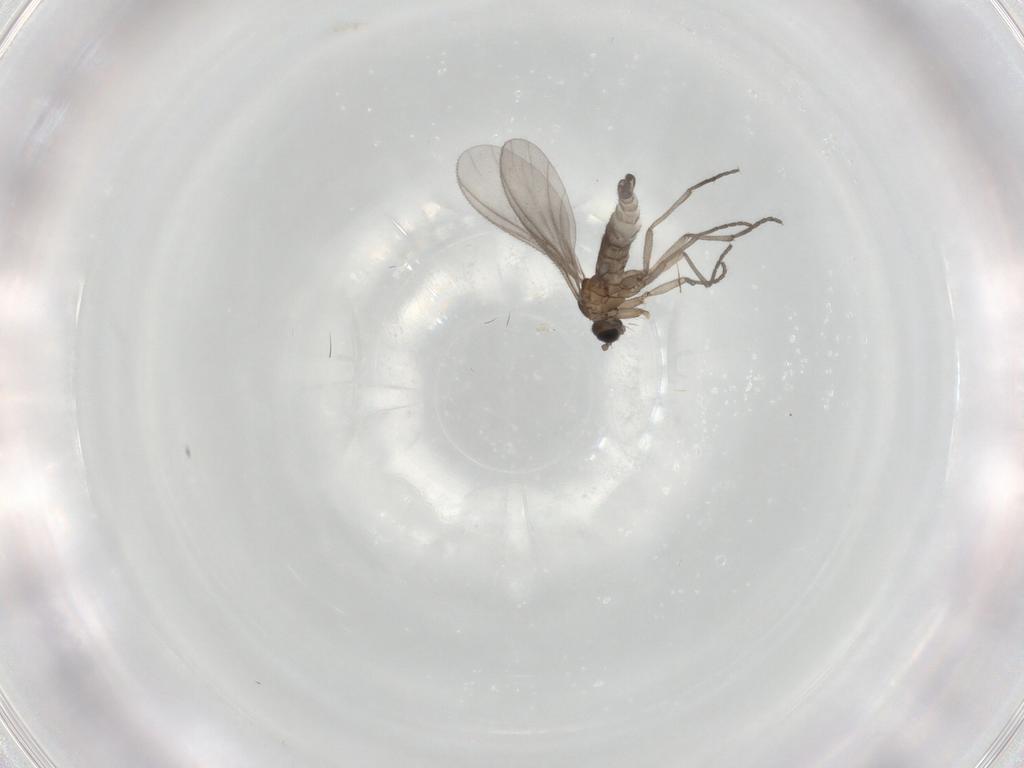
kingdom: Animalia
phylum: Arthropoda
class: Insecta
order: Diptera
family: Sciaridae
